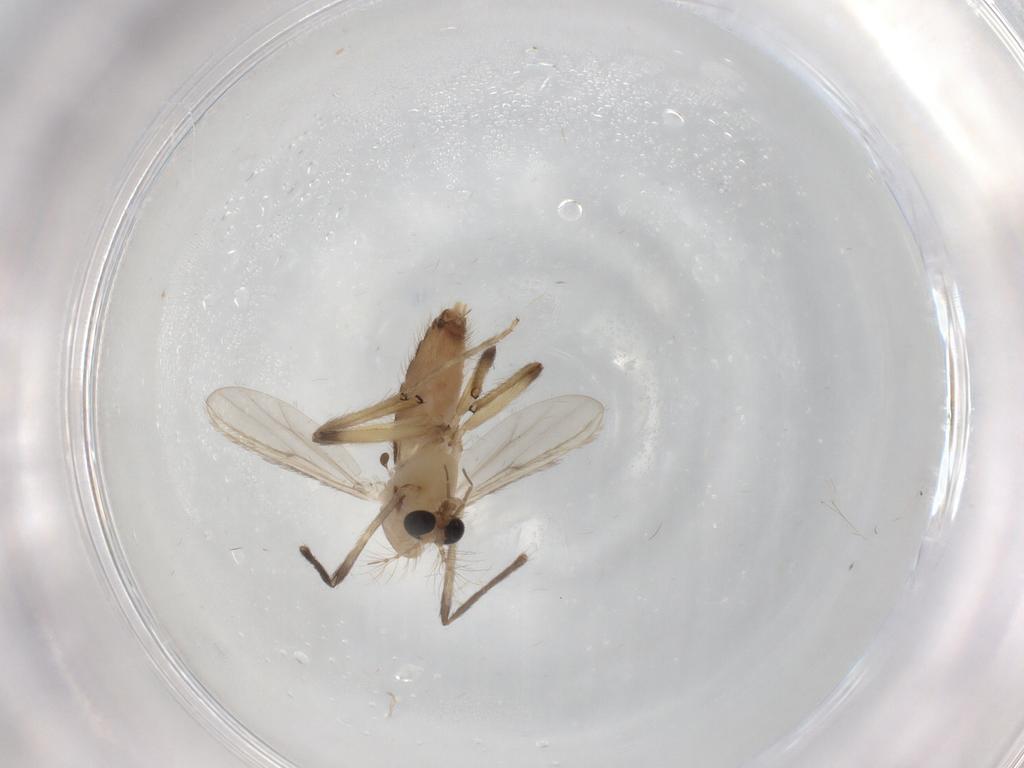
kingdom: Animalia
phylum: Arthropoda
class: Insecta
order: Diptera
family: Chironomidae
